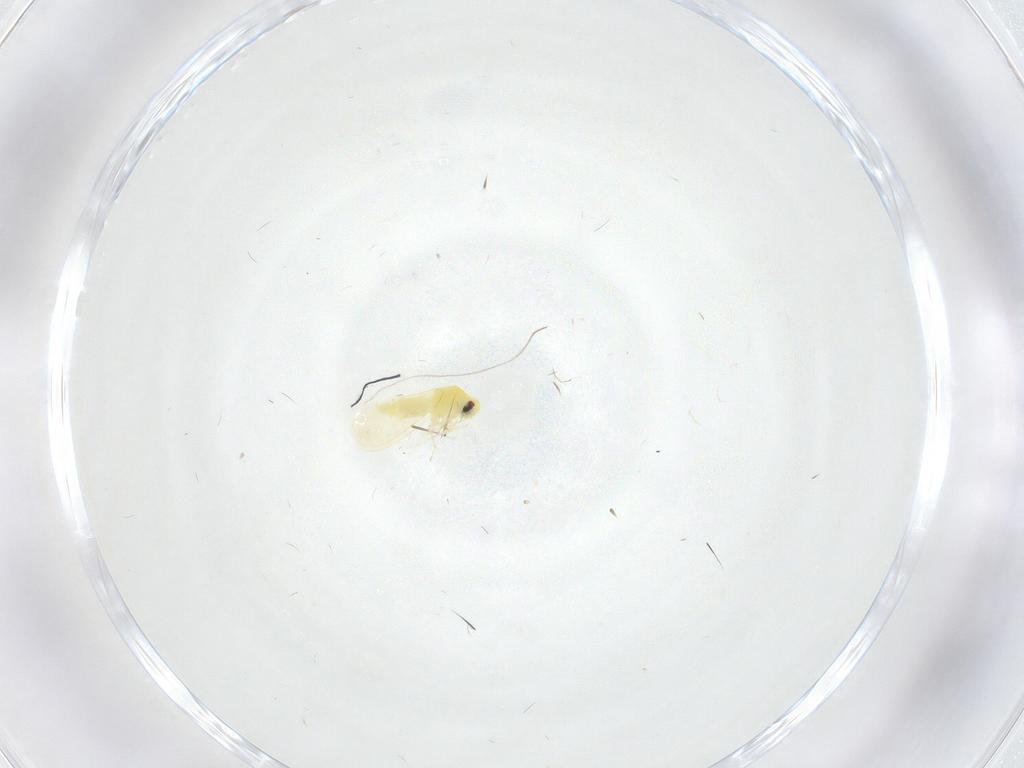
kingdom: Animalia
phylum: Arthropoda
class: Insecta
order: Hemiptera
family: Aleyrodidae
